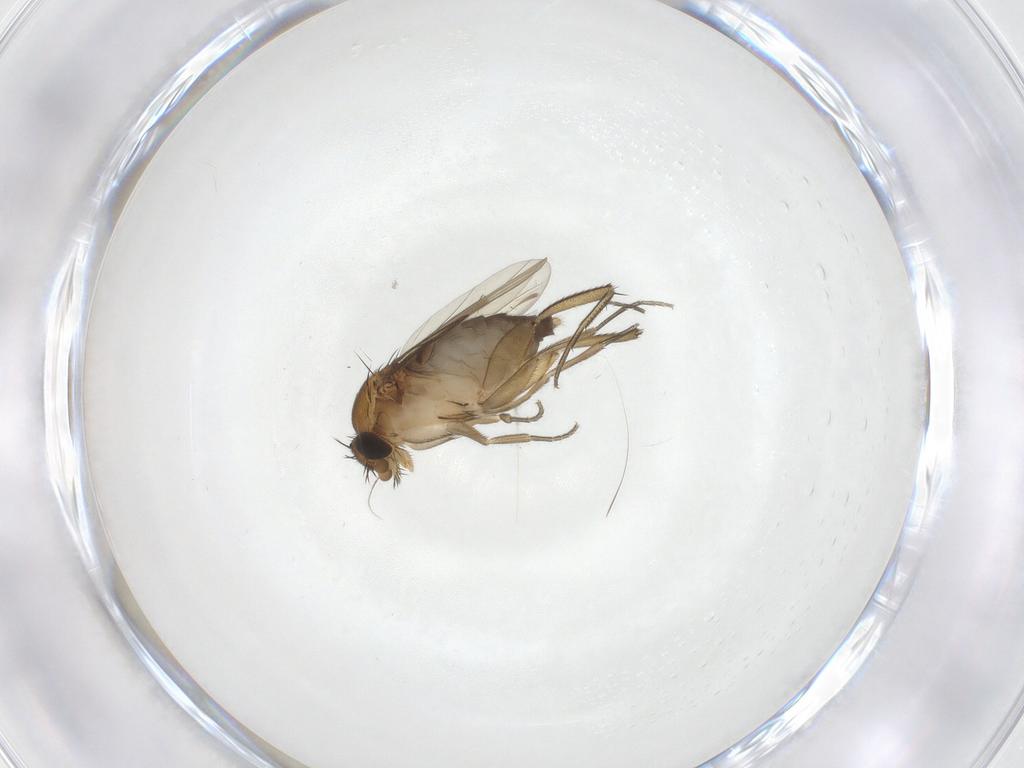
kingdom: Animalia
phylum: Arthropoda
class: Insecta
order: Diptera
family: Phoridae
